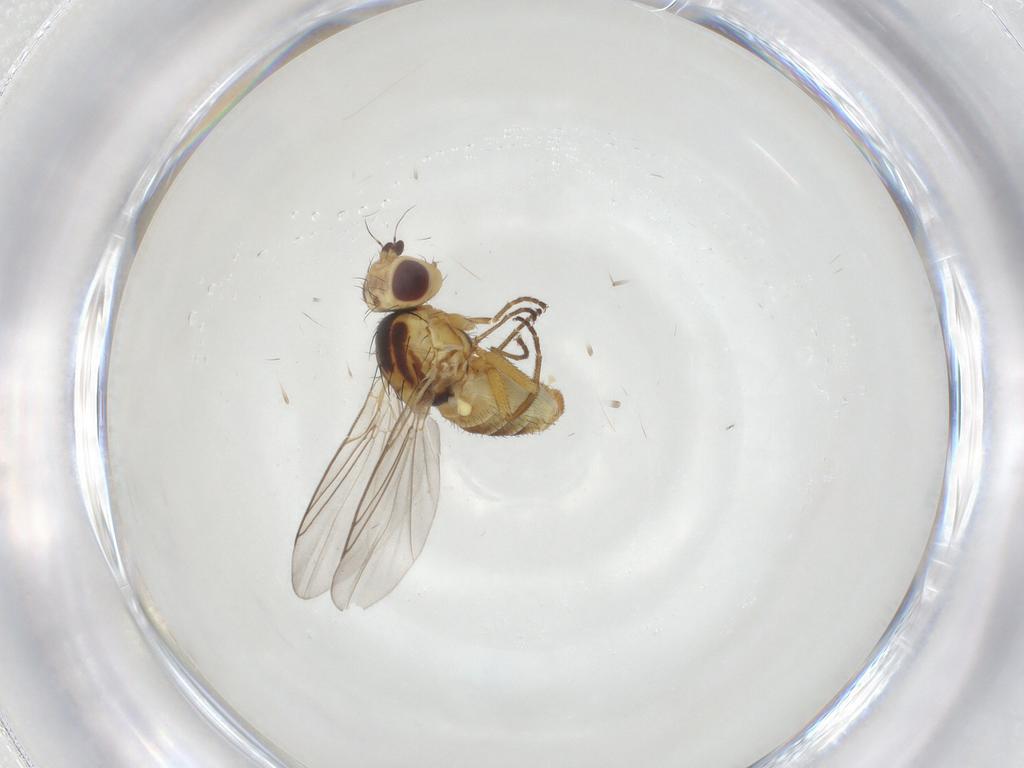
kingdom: Animalia
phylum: Arthropoda
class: Insecta
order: Diptera
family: Agromyzidae
